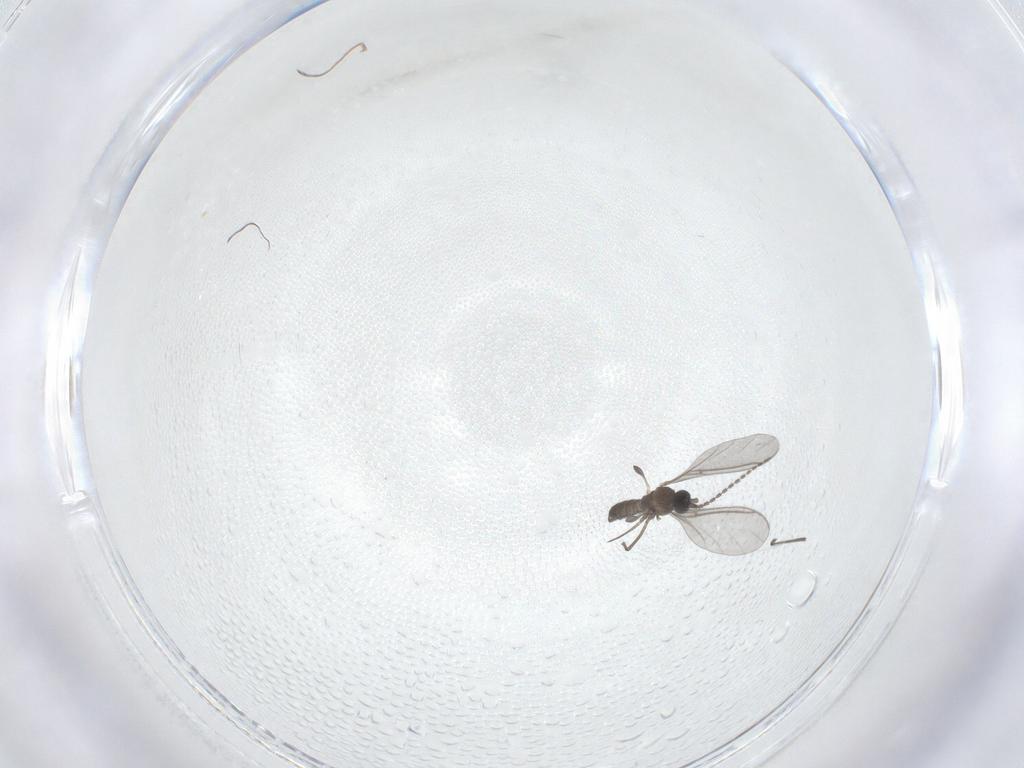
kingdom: Animalia
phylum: Arthropoda
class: Insecta
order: Diptera
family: Sciaridae
